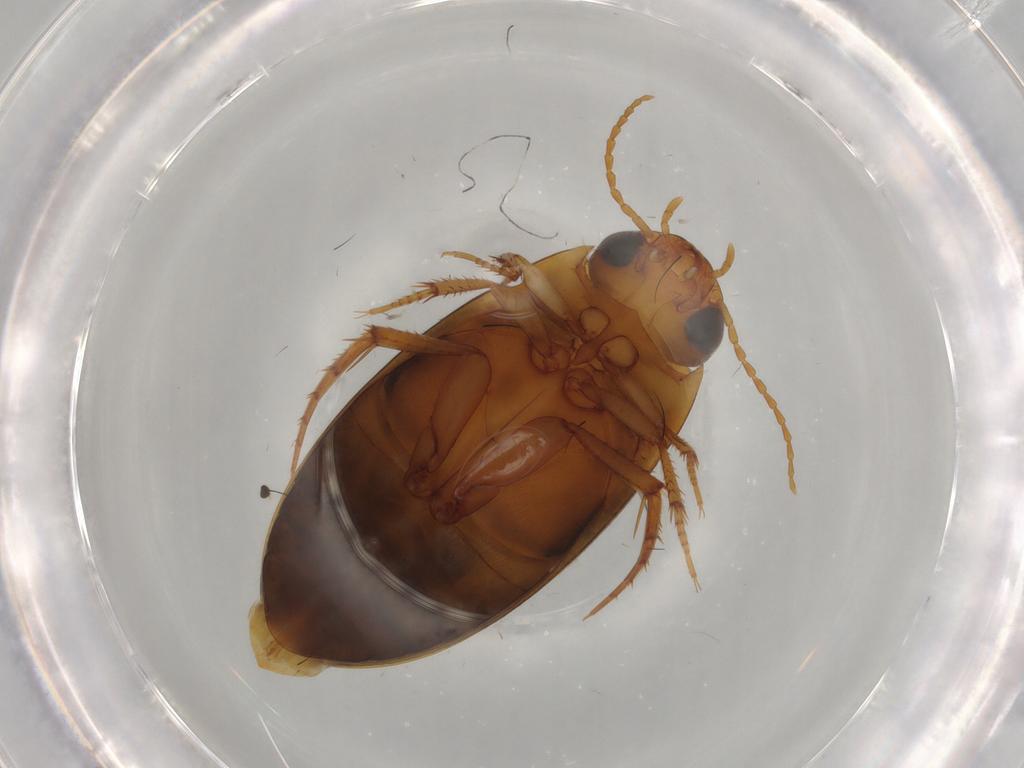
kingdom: Animalia
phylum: Arthropoda
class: Insecta
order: Coleoptera
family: Dytiscidae
